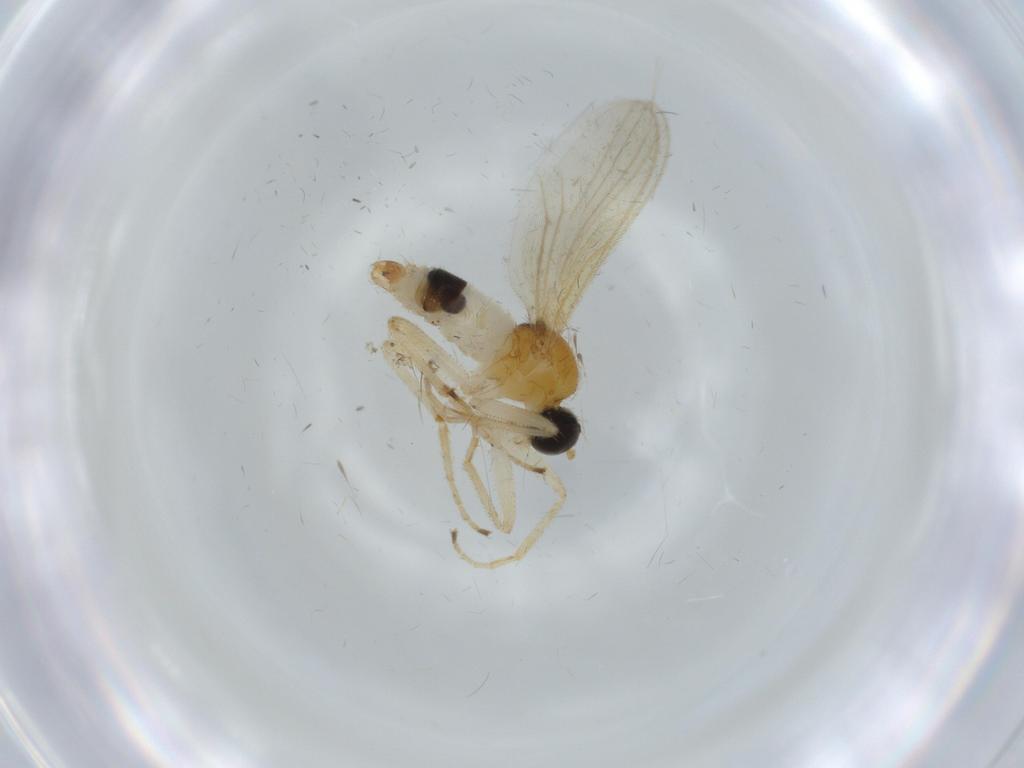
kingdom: Animalia
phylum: Arthropoda
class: Insecta
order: Diptera
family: Hybotidae
